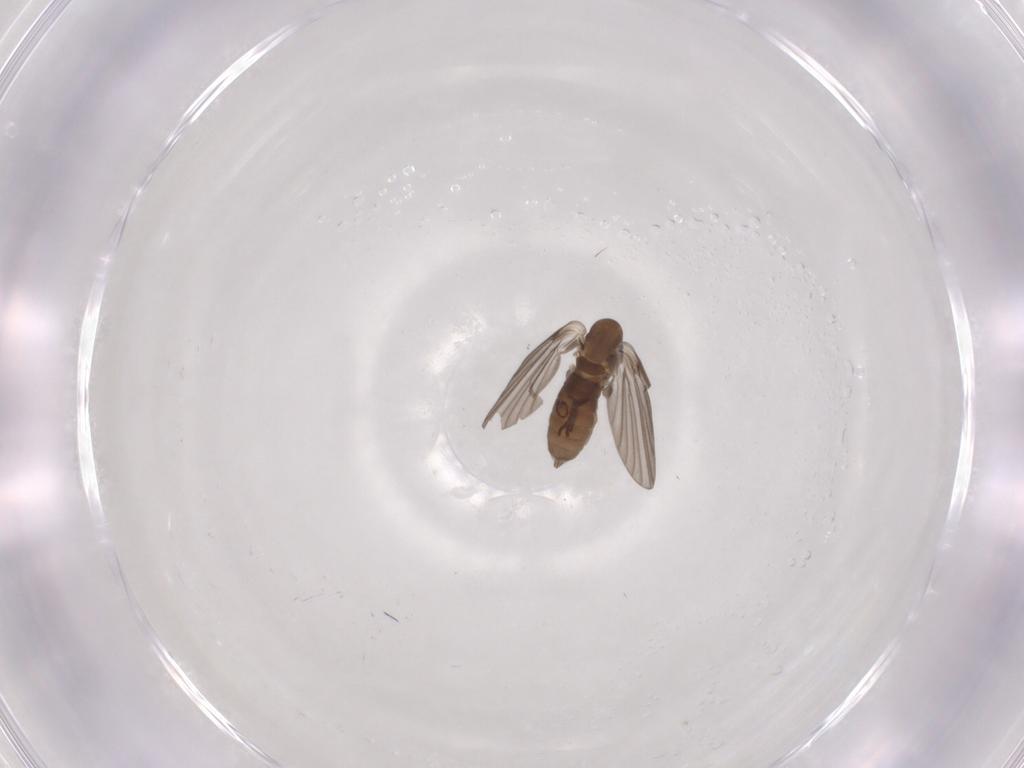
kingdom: Animalia
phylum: Arthropoda
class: Insecta
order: Diptera
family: Psychodidae
